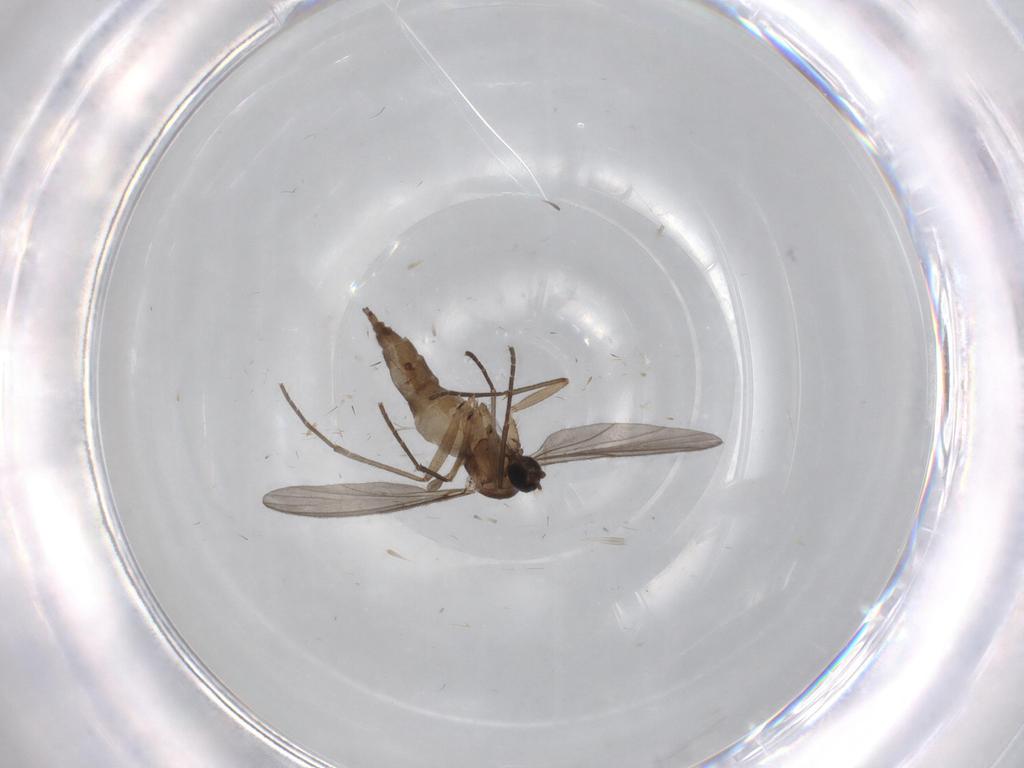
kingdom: Animalia
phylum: Arthropoda
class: Insecta
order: Diptera
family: Sciaridae
